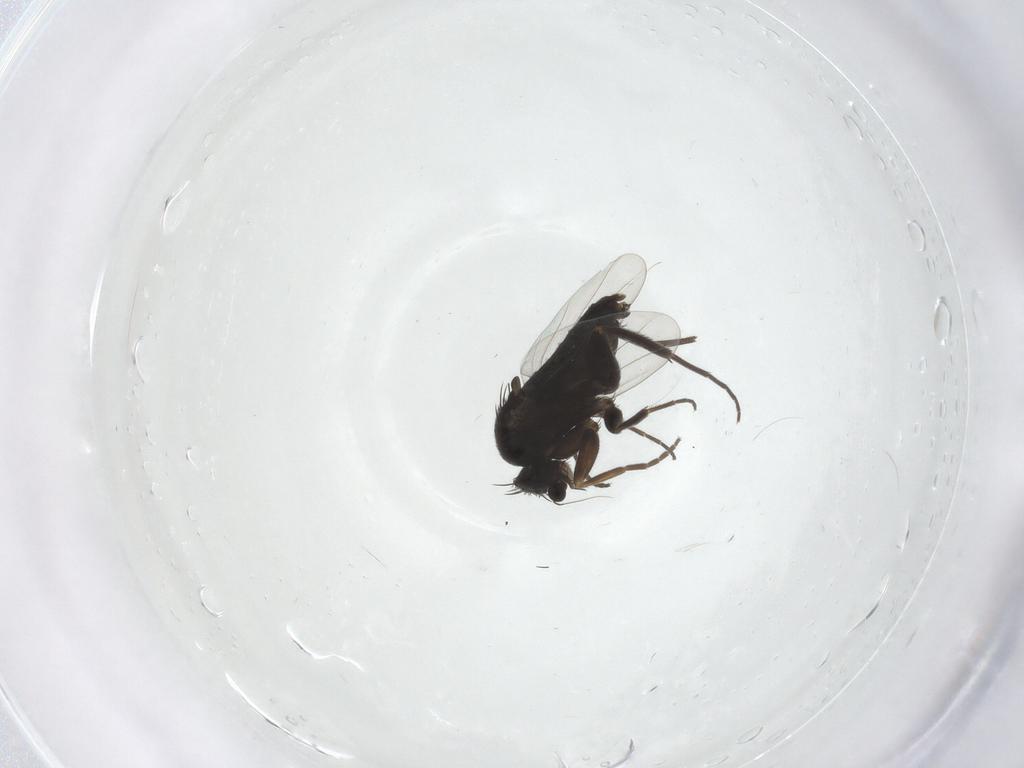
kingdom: Animalia
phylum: Arthropoda
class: Insecta
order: Diptera
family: Phoridae
